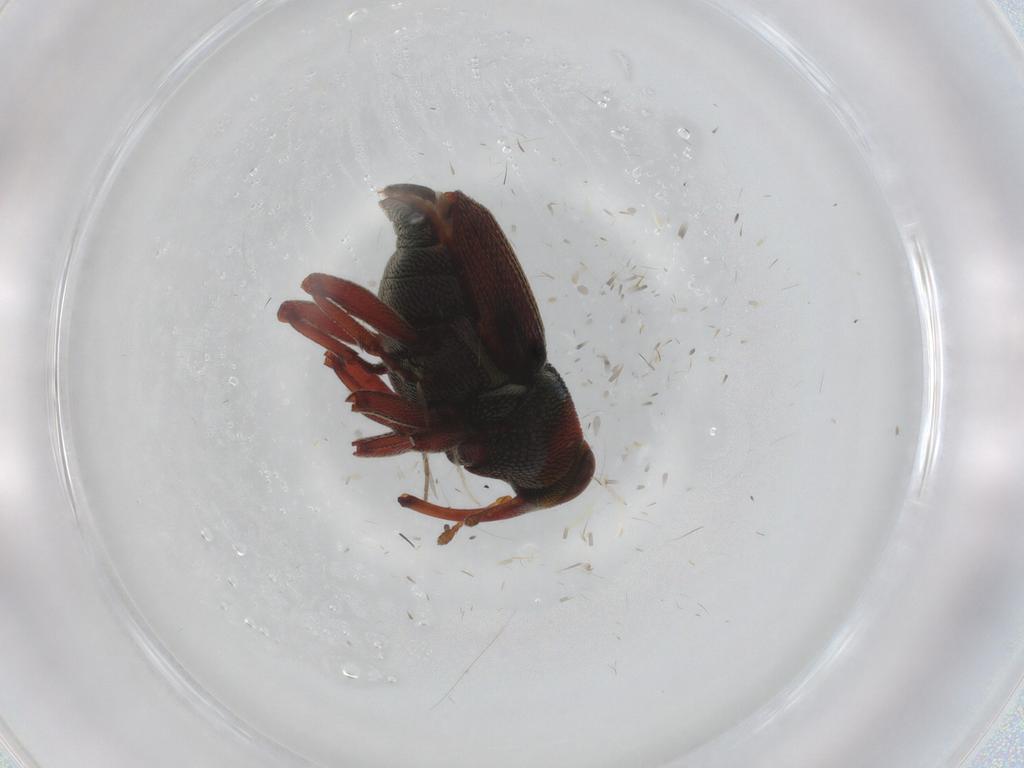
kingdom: Animalia
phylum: Arthropoda
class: Insecta
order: Coleoptera
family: Curculionidae
